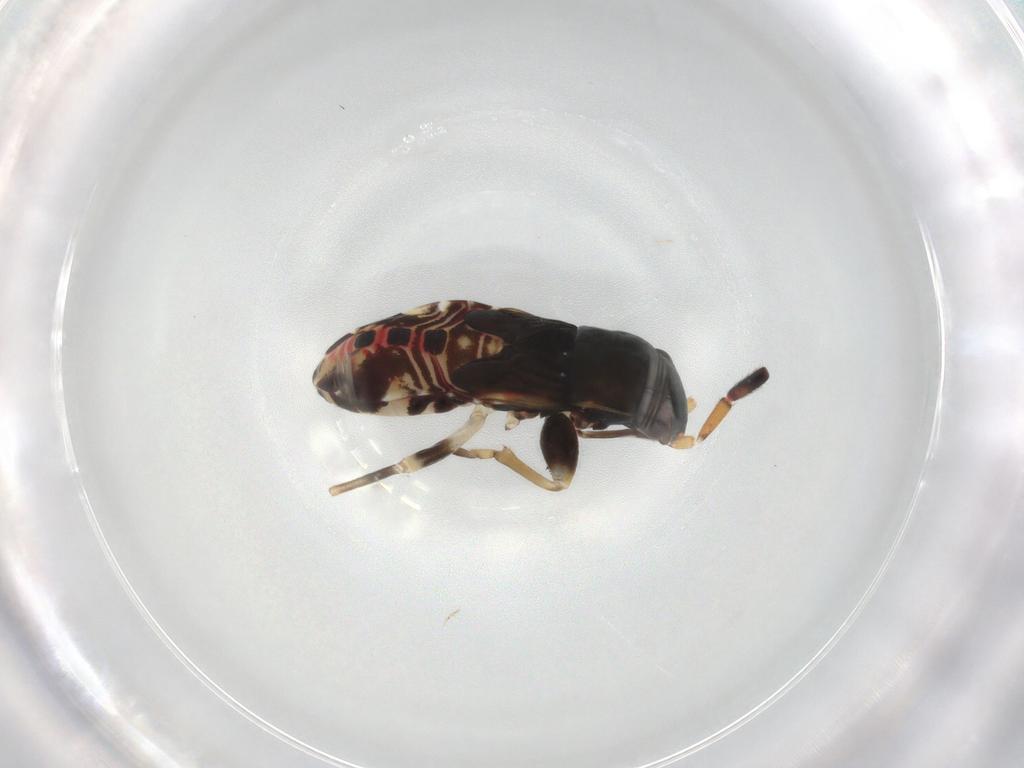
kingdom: Animalia
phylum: Arthropoda
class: Insecta
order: Hemiptera
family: Rhyparochromidae
